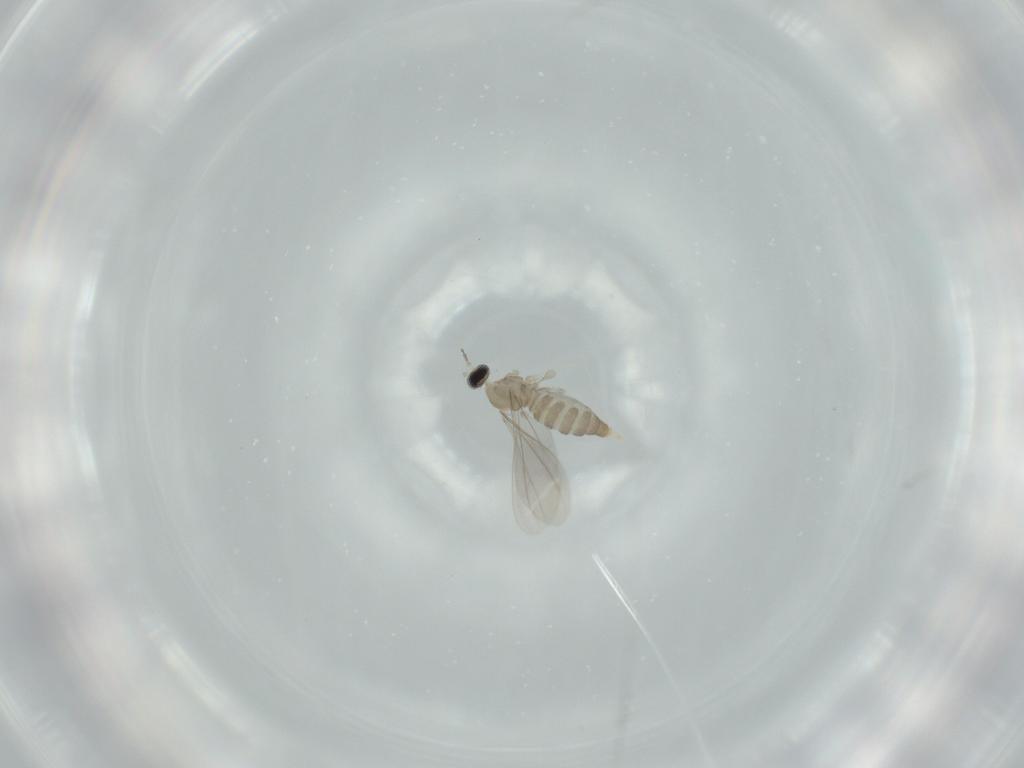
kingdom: Animalia
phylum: Arthropoda
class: Insecta
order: Diptera
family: Cecidomyiidae
